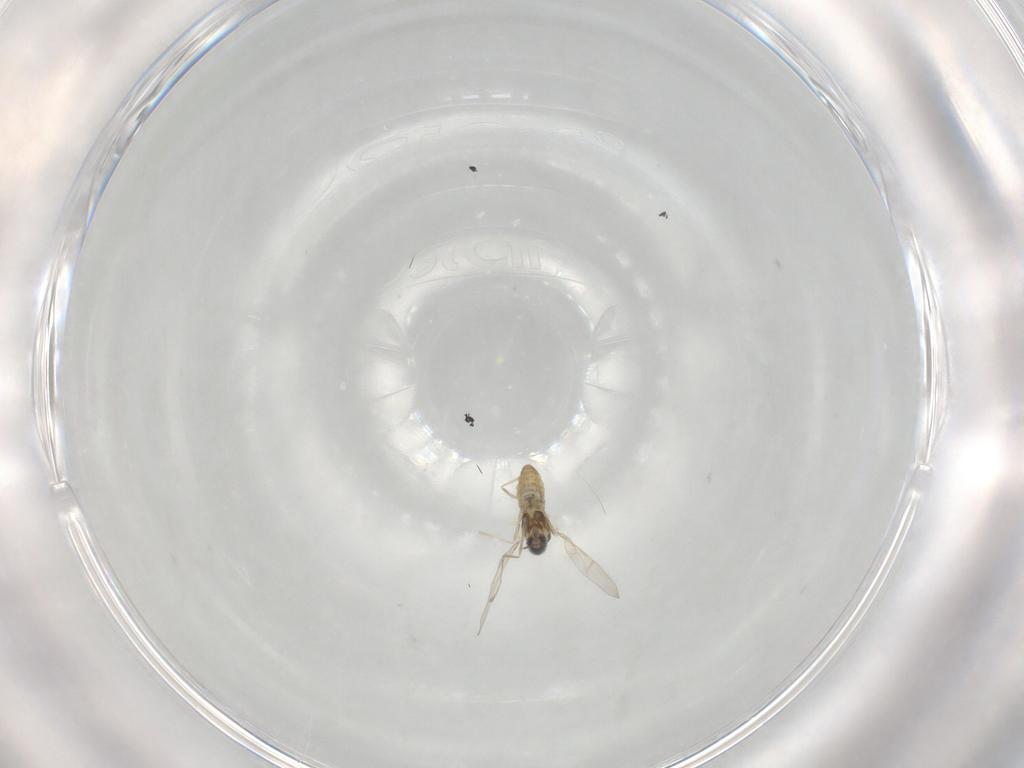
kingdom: Animalia
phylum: Arthropoda
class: Insecta
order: Diptera
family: Cecidomyiidae
